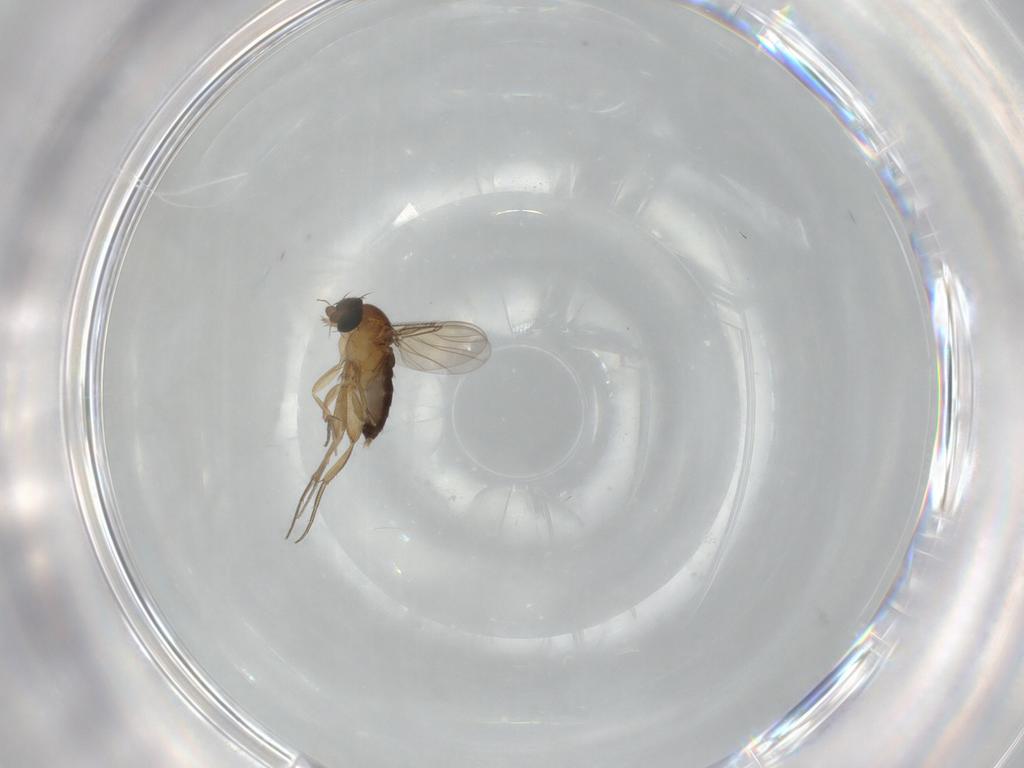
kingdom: Animalia
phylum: Arthropoda
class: Insecta
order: Diptera
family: Phoridae
